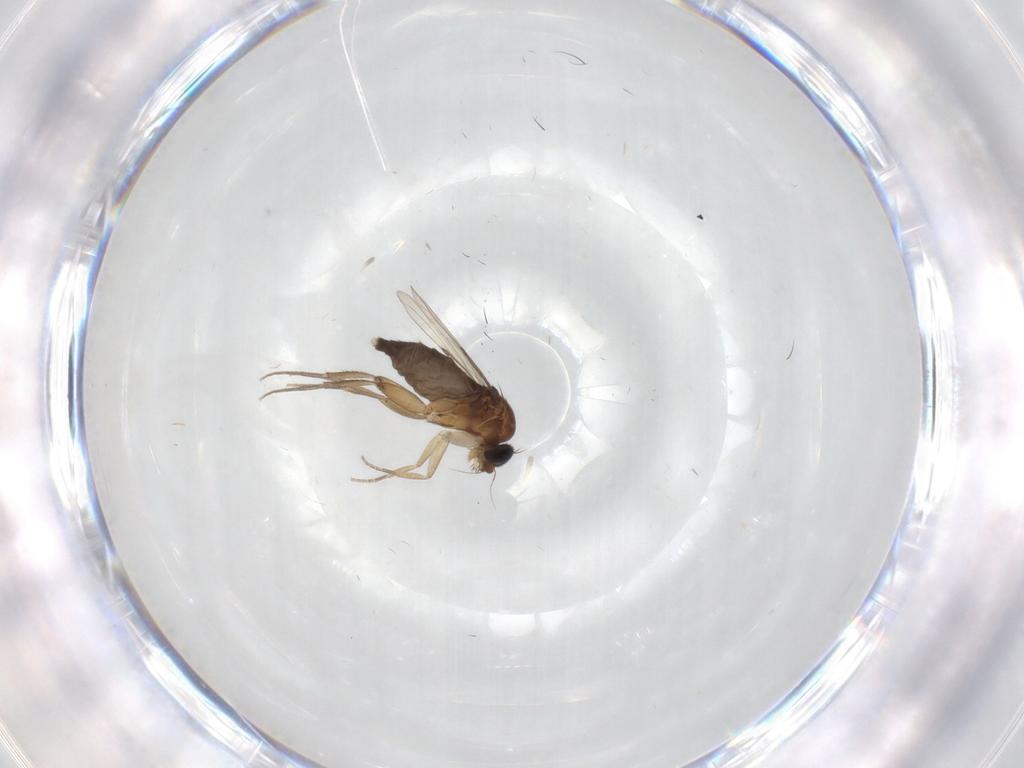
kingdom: Animalia
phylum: Arthropoda
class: Insecta
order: Diptera
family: Phoridae
